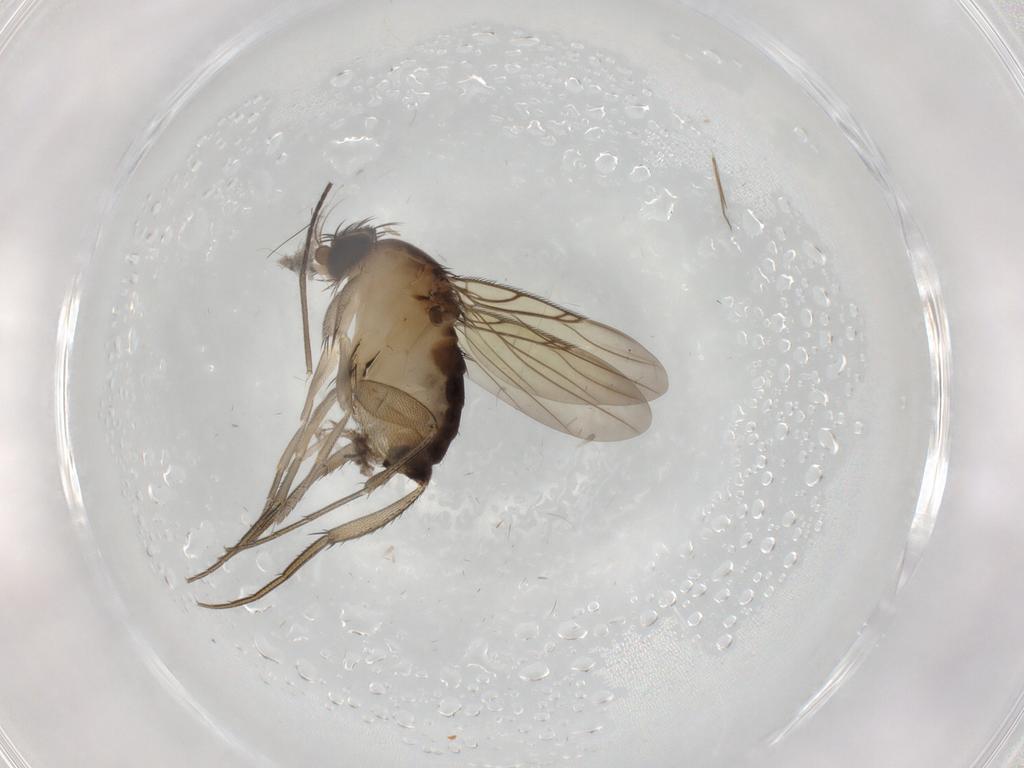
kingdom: Animalia
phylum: Arthropoda
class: Insecta
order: Diptera
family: Phoridae
